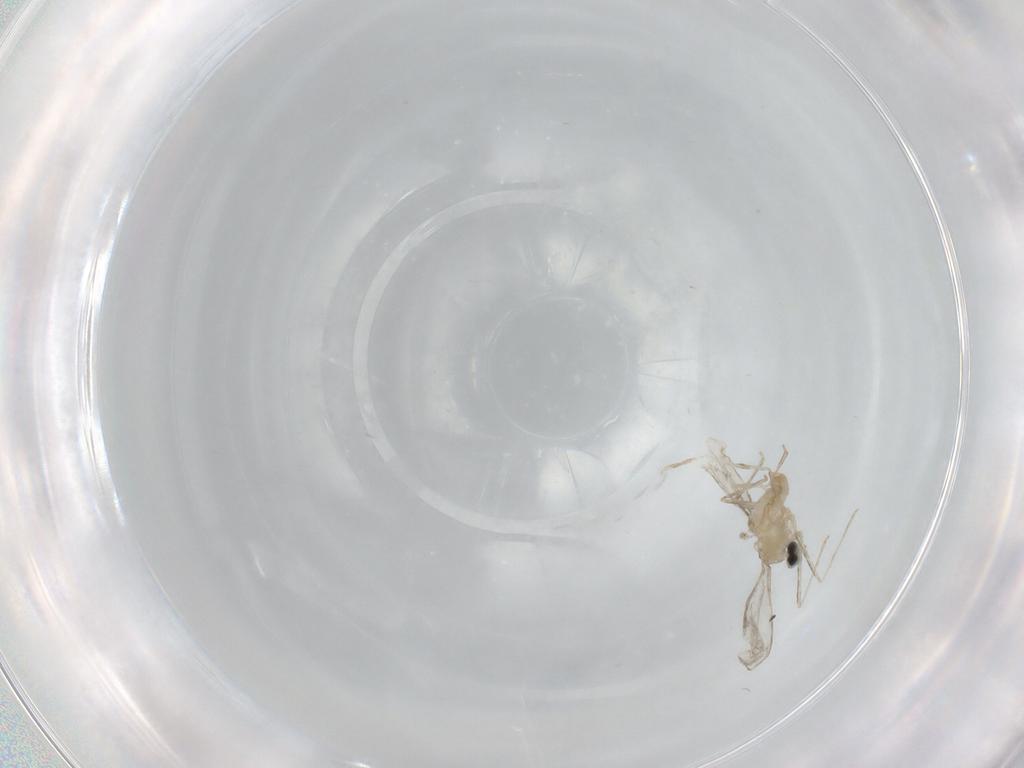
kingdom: Animalia
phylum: Arthropoda
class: Insecta
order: Diptera
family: Cecidomyiidae
